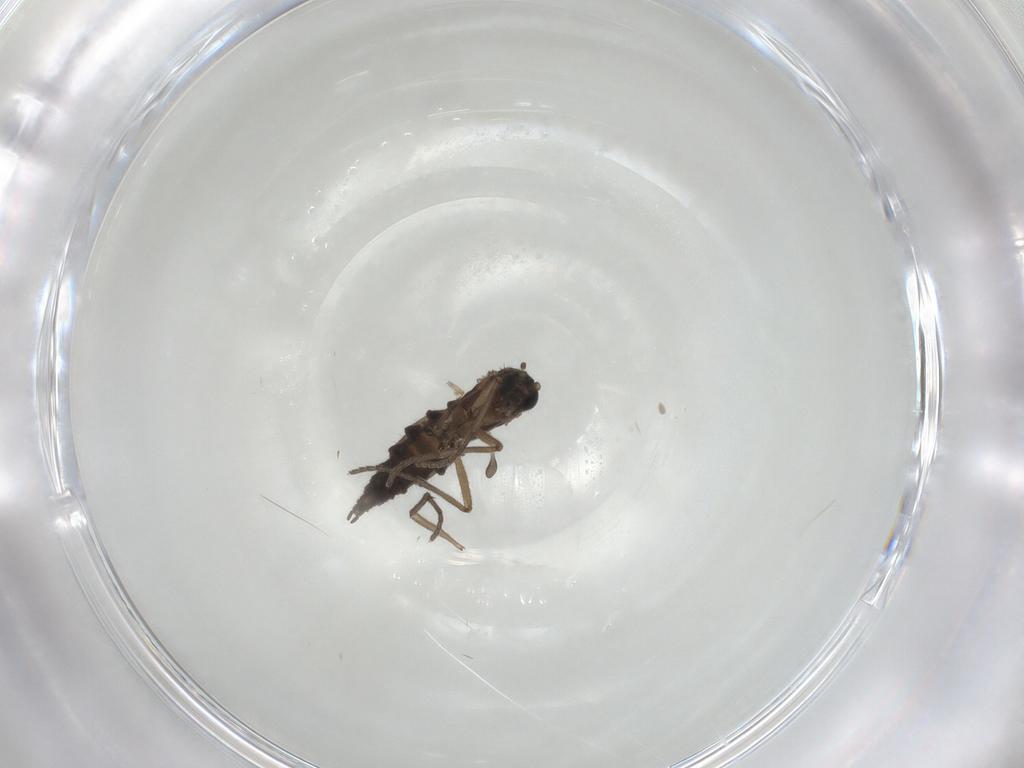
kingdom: Animalia
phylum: Arthropoda
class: Insecta
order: Diptera
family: Sciaridae
